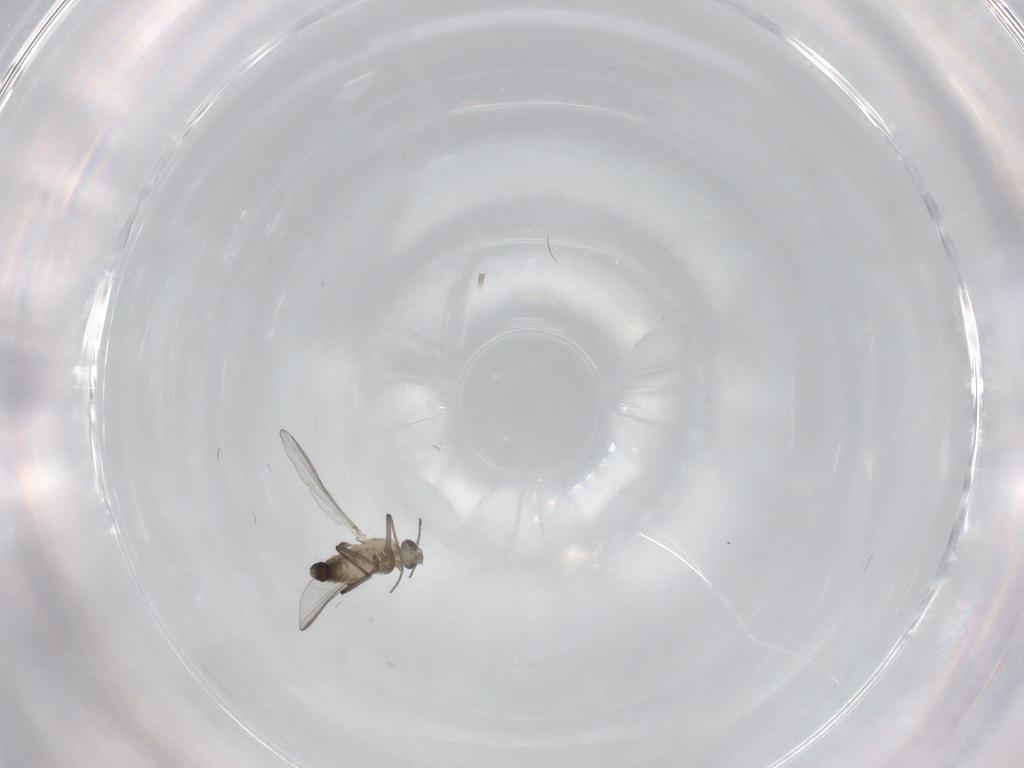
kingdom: Animalia
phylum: Arthropoda
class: Insecta
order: Diptera
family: Chironomidae
